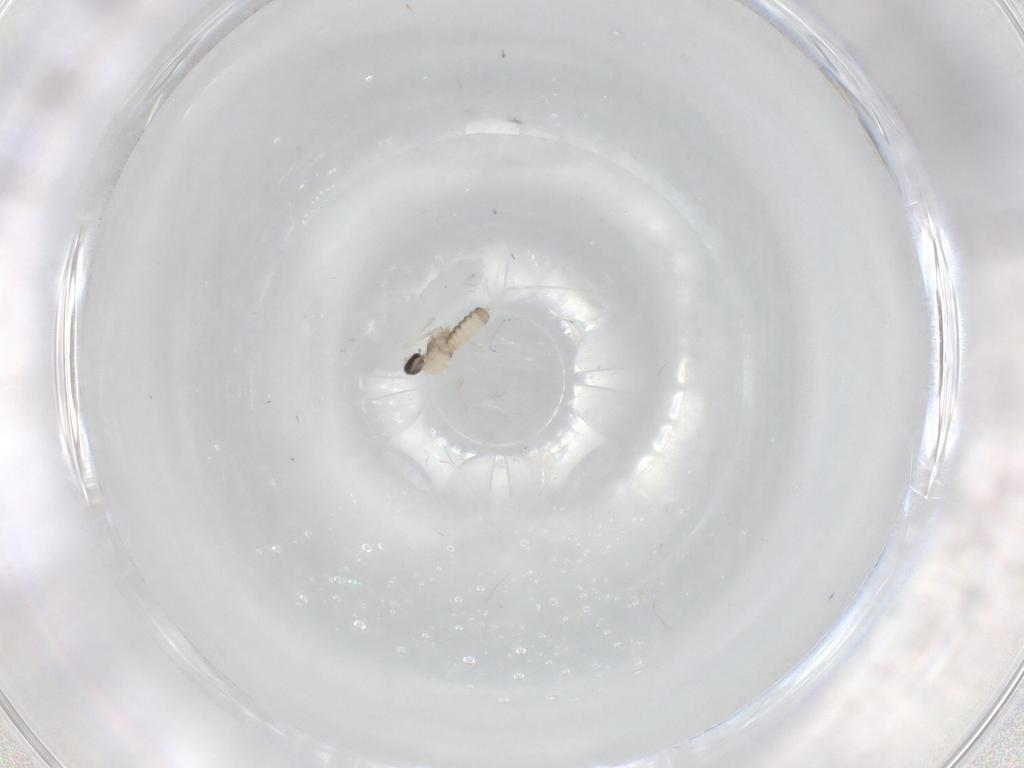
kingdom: Animalia
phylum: Arthropoda
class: Insecta
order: Diptera
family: Cecidomyiidae
